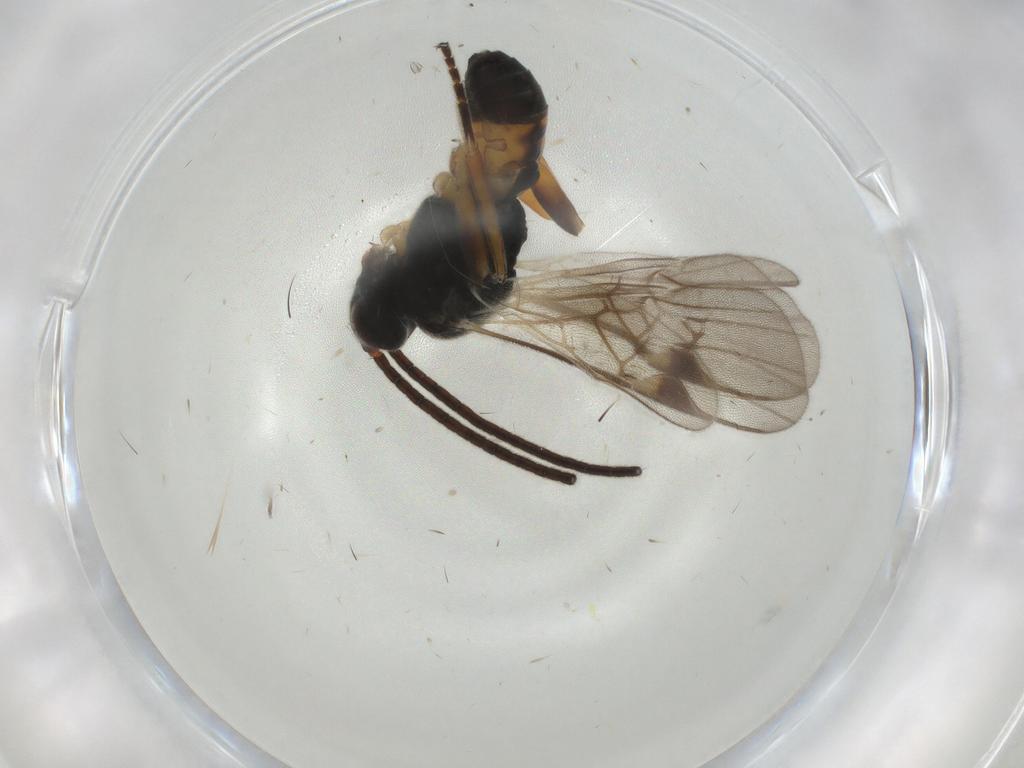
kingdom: Animalia
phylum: Arthropoda
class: Insecta
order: Hymenoptera
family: Braconidae
